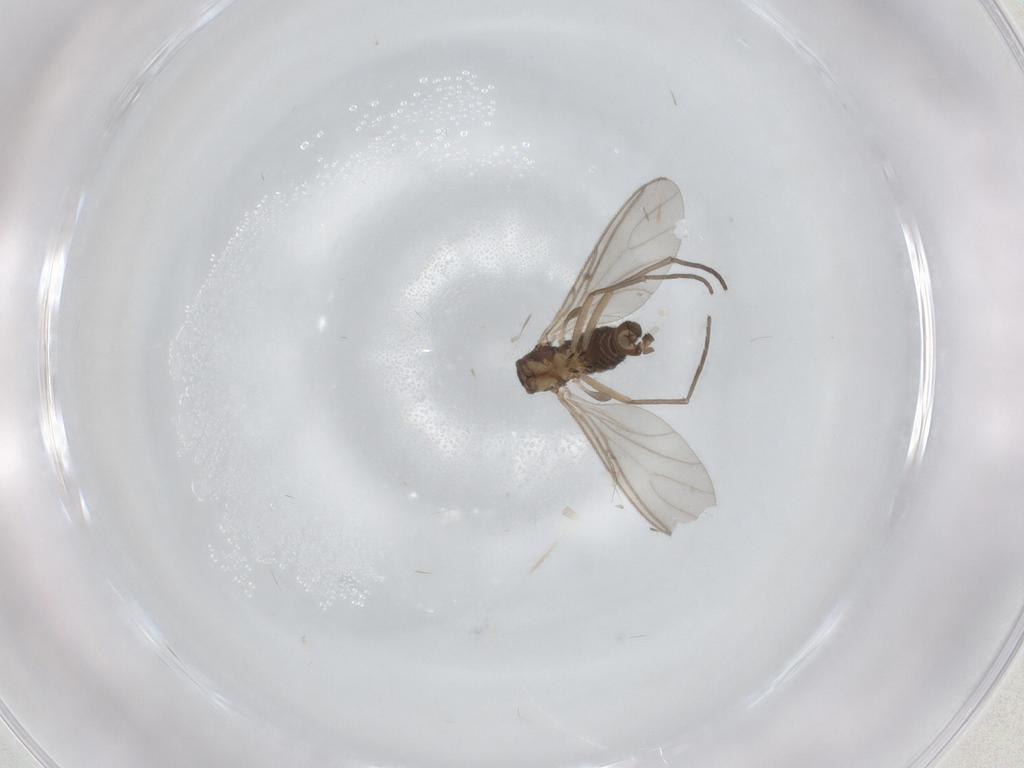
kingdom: Animalia
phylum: Arthropoda
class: Insecta
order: Diptera
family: Sciaridae
